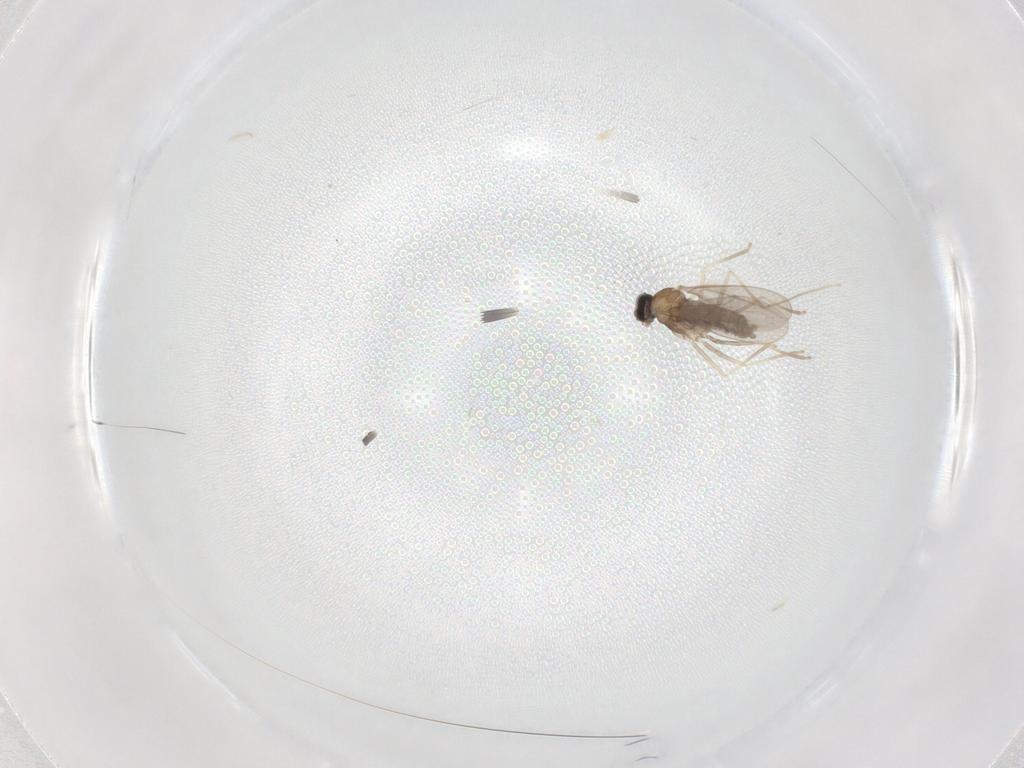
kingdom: Animalia
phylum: Arthropoda
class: Insecta
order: Diptera
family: Cecidomyiidae
